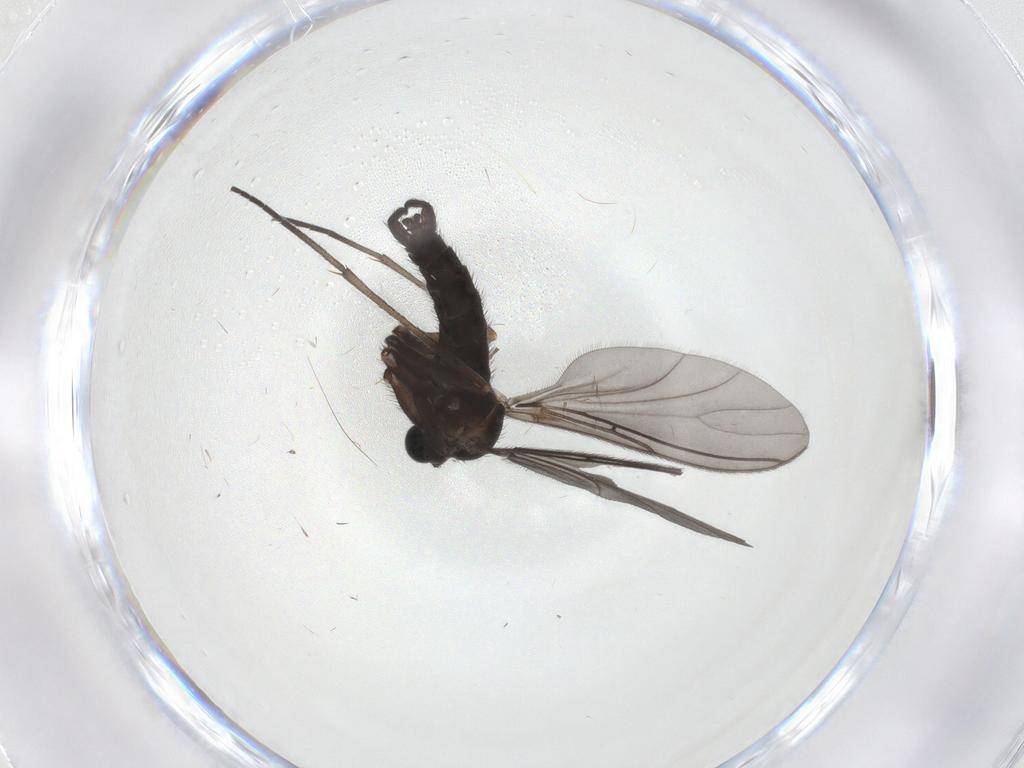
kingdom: Animalia
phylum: Arthropoda
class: Insecta
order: Diptera
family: Sciaridae
